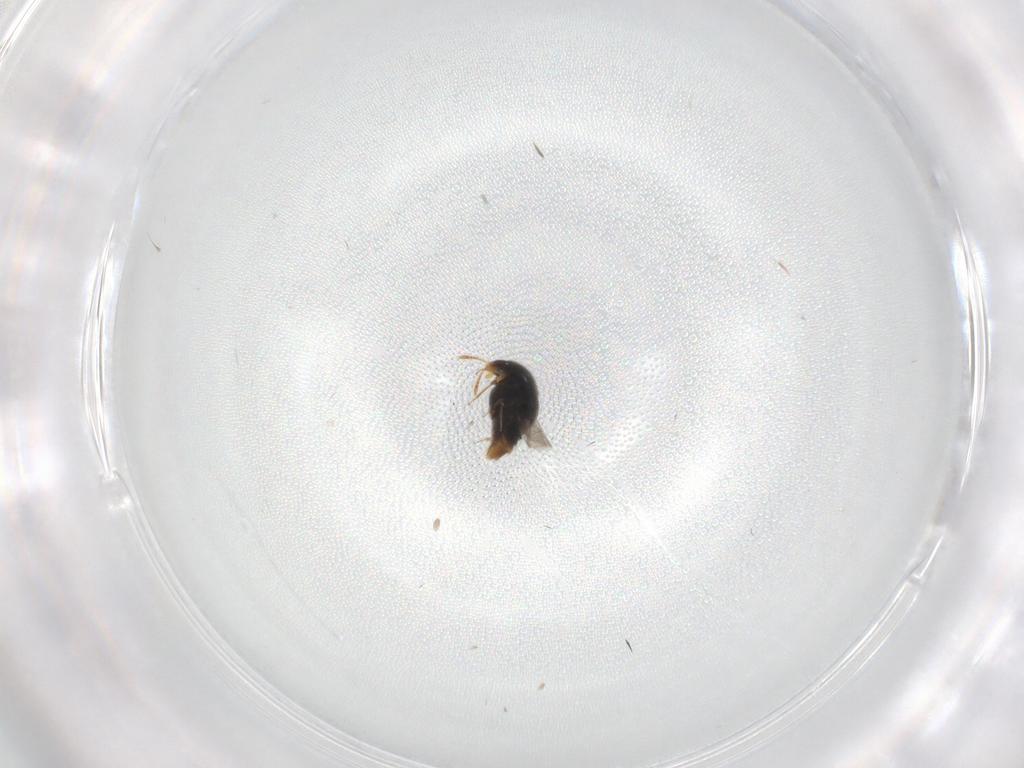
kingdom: Animalia
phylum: Arthropoda
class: Insecta
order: Coleoptera
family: Staphylinidae
